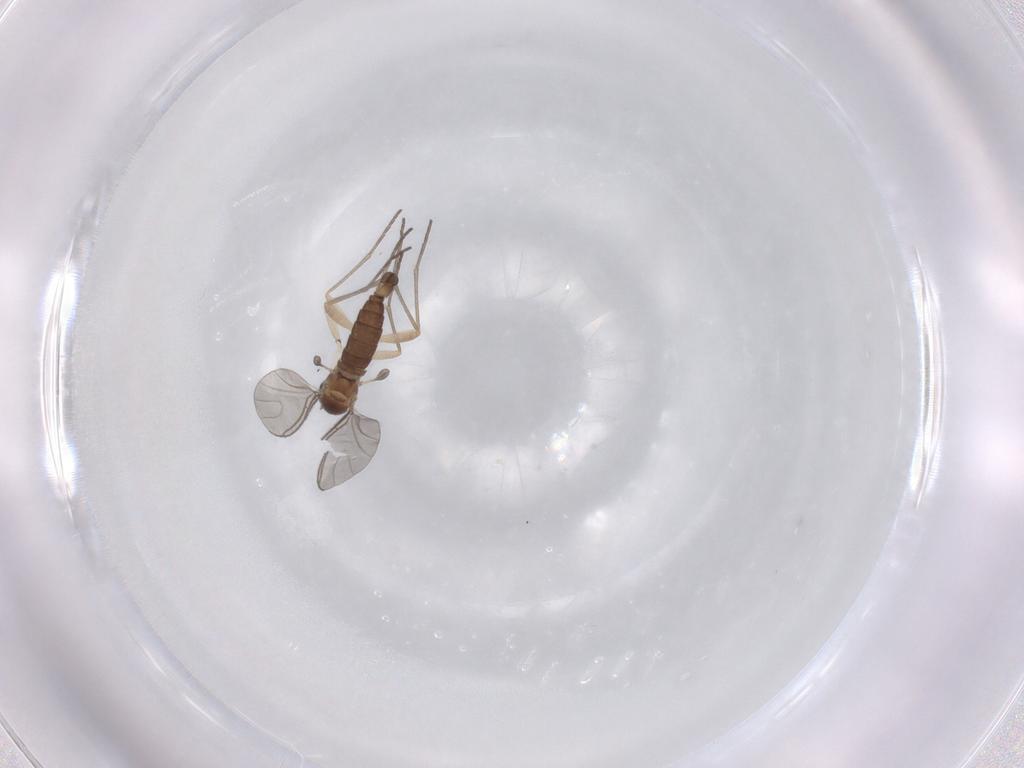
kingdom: Animalia
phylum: Arthropoda
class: Insecta
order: Diptera
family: Sciaridae
